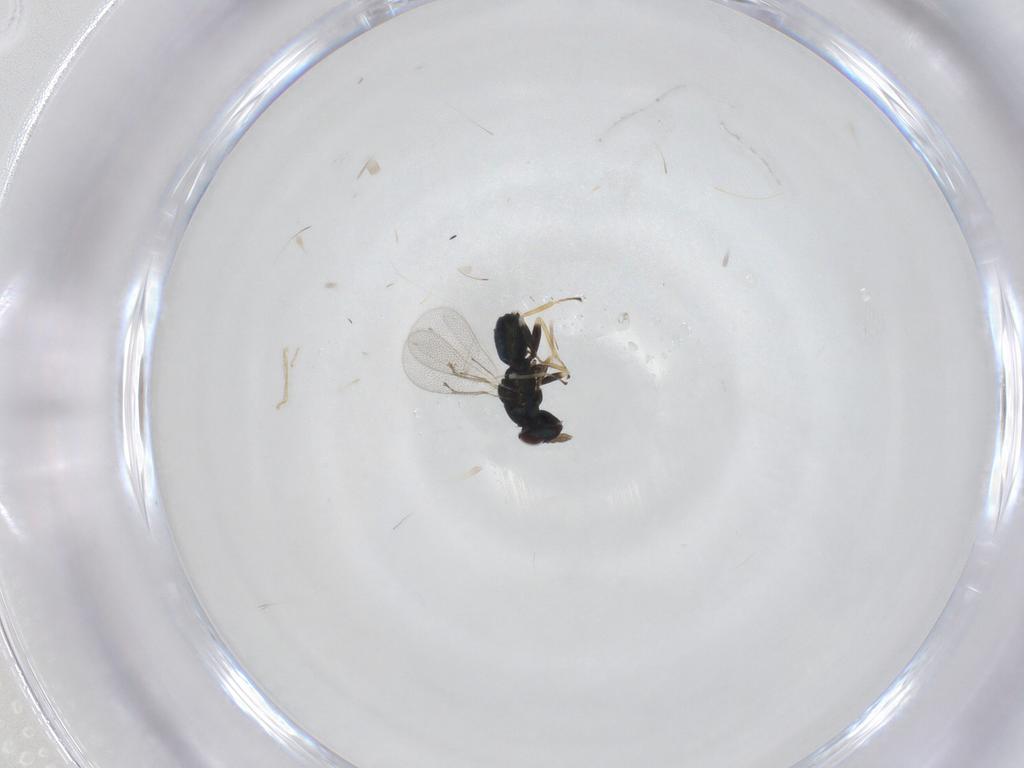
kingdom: Animalia
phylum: Arthropoda
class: Insecta
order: Hymenoptera
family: Eulophidae
